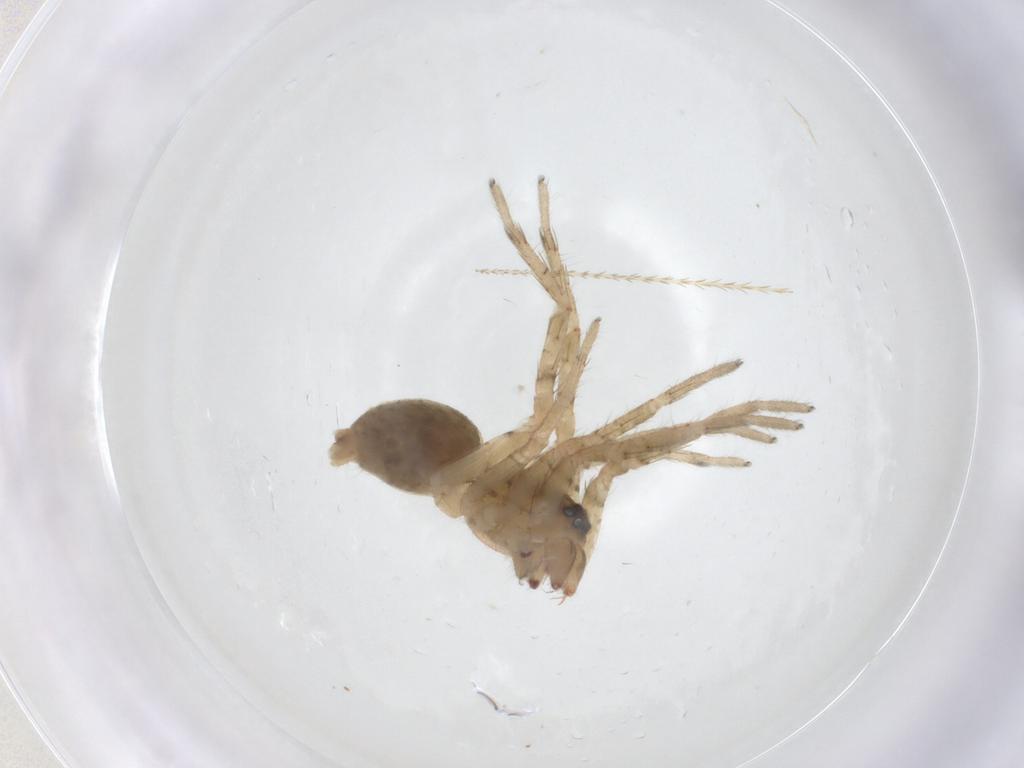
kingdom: Animalia
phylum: Arthropoda
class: Arachnida
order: Araneae
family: Anyphaenidae
